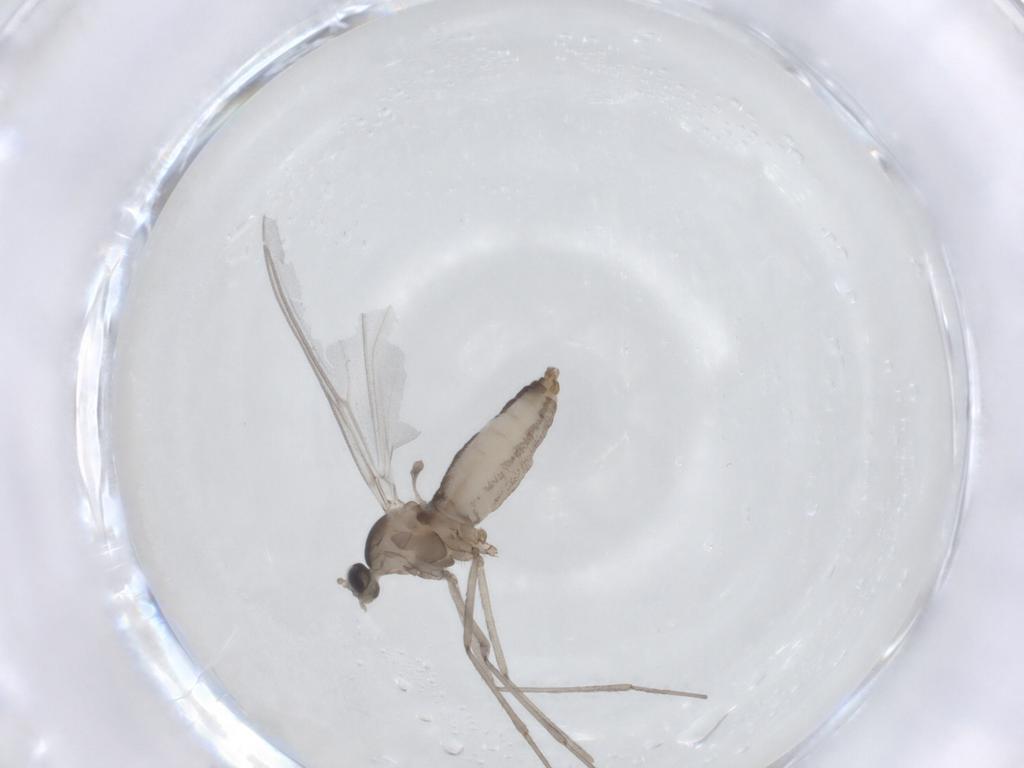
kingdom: Animalia
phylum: Arthropoda
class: Insecta
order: Diptera
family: Cecidomyiidae
